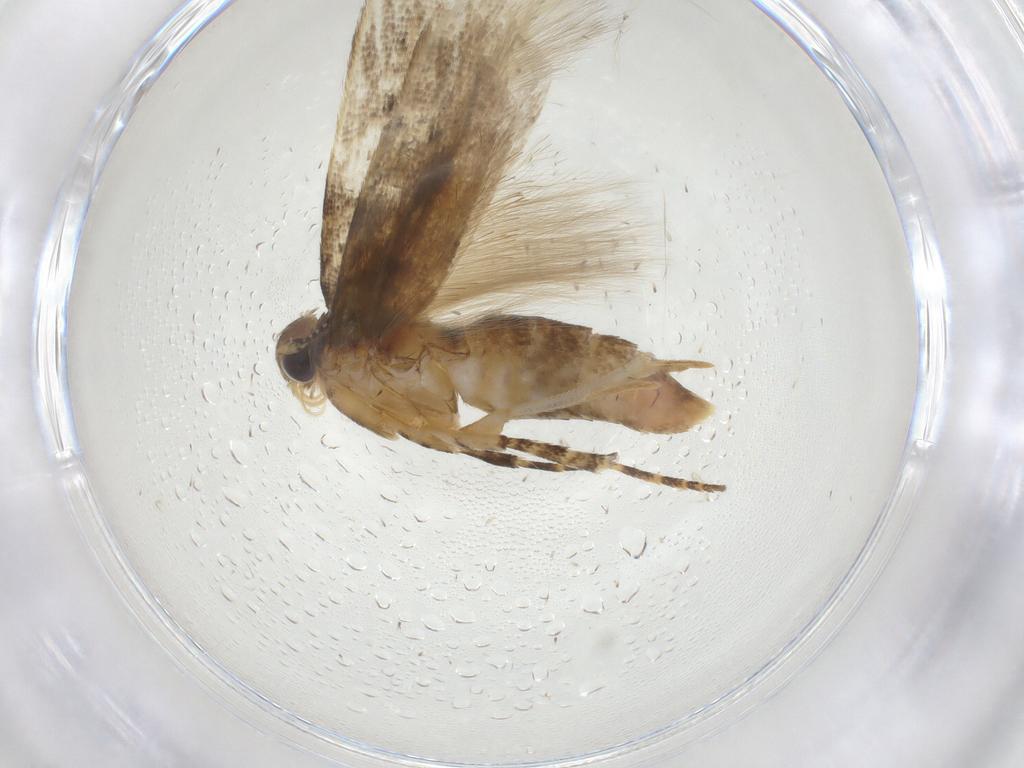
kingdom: Animalia
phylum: Arthropoda
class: Insecta
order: Lepidoptera
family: Gelechiidae
